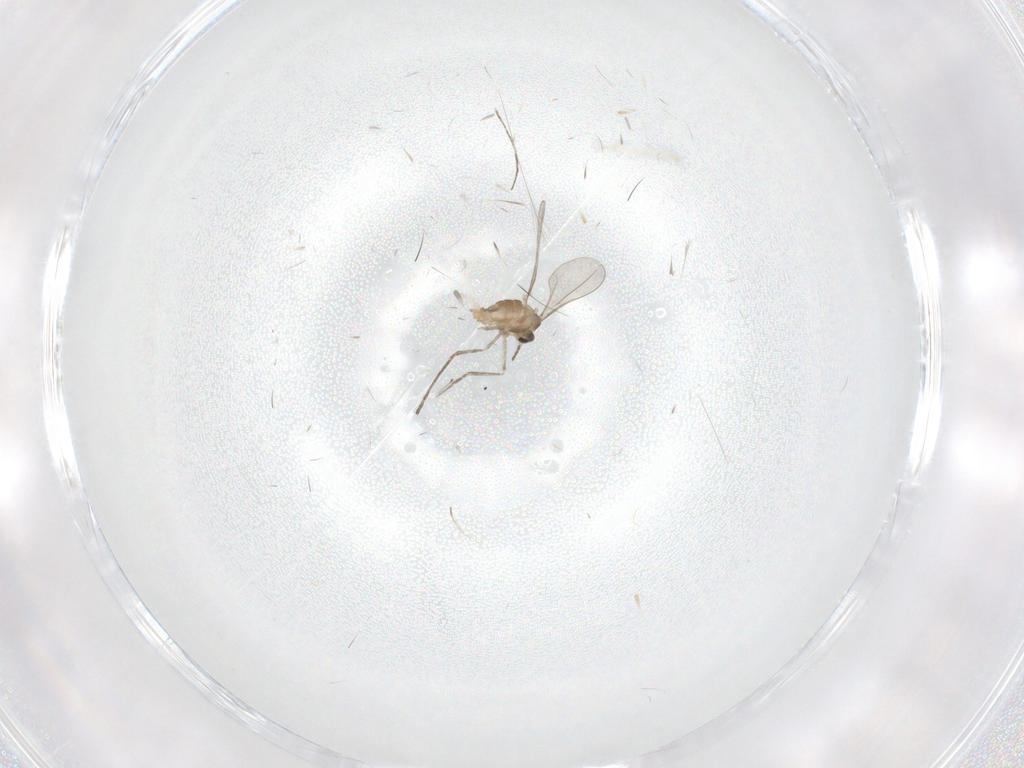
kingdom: Animalia
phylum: Arthropoda
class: Insecta
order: Diptera
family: Cecidomyiidae
